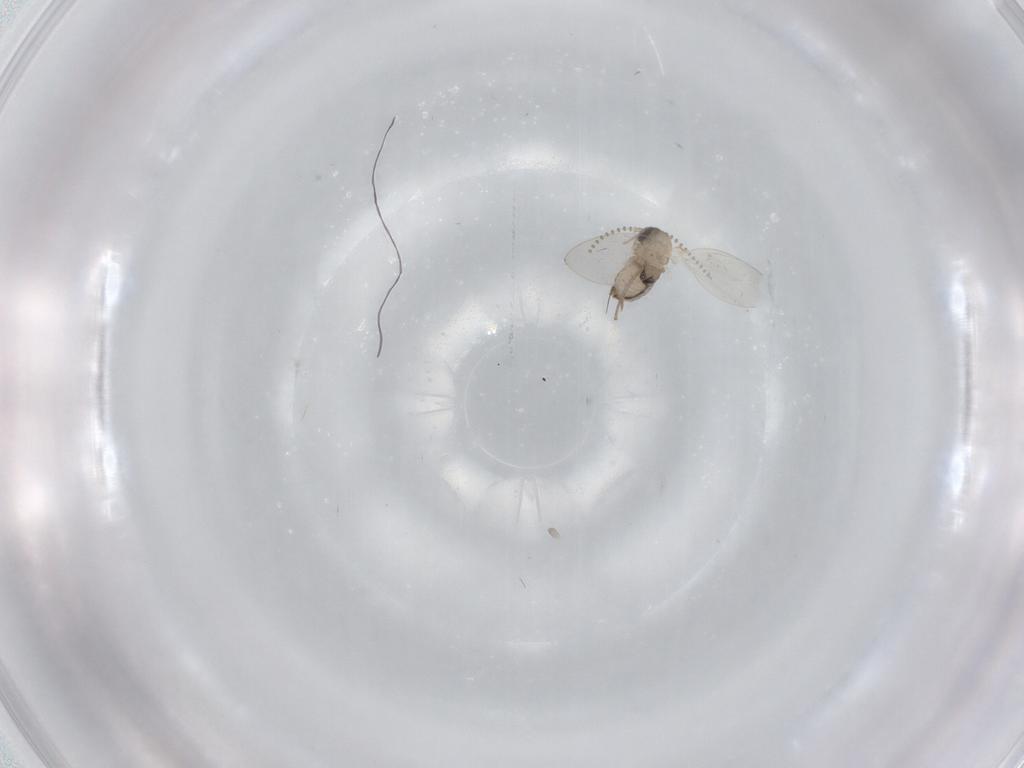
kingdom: Animalia
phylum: Arthropoda
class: Insecta
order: Diptera
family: Psychodidae
